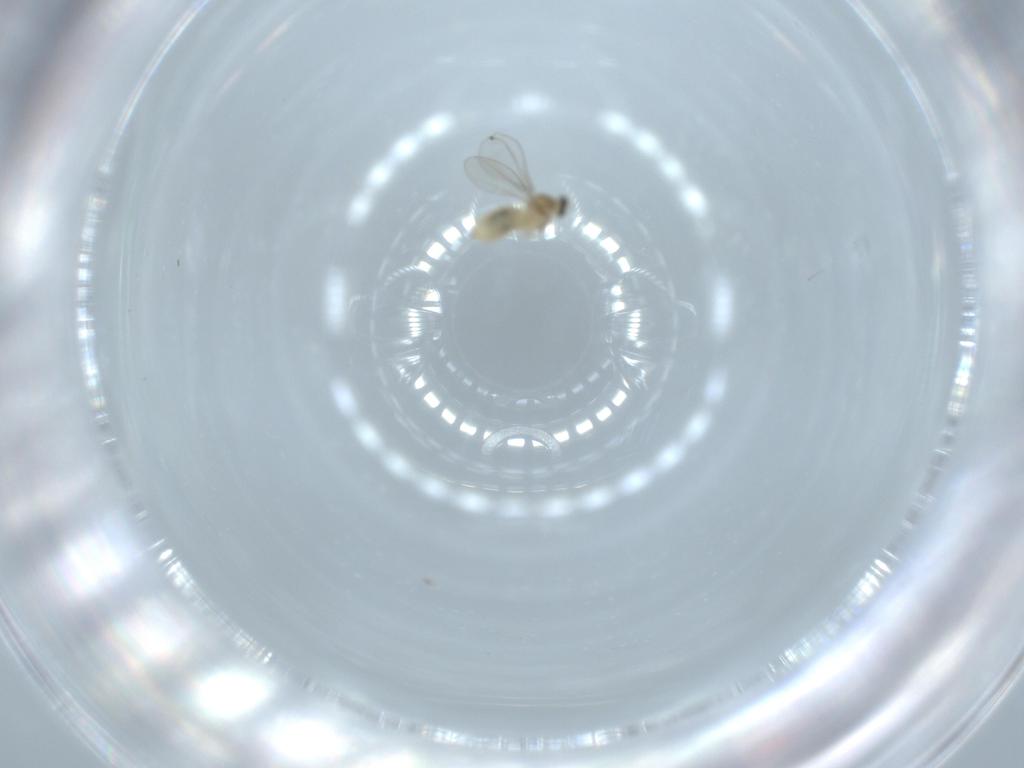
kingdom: Animalia
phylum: Arthropoda
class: Insecta
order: Diptera
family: Cecidomyiidae
